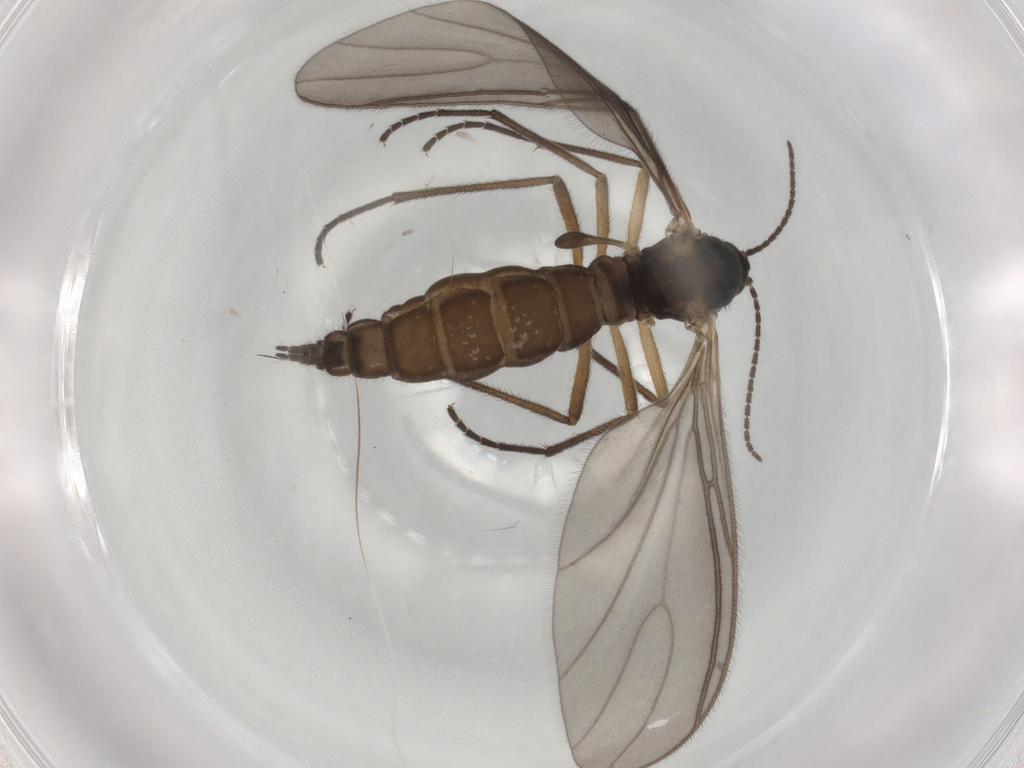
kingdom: Animalia
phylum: Arthropoda
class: Insecta
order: Diptera
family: Sciaridae
